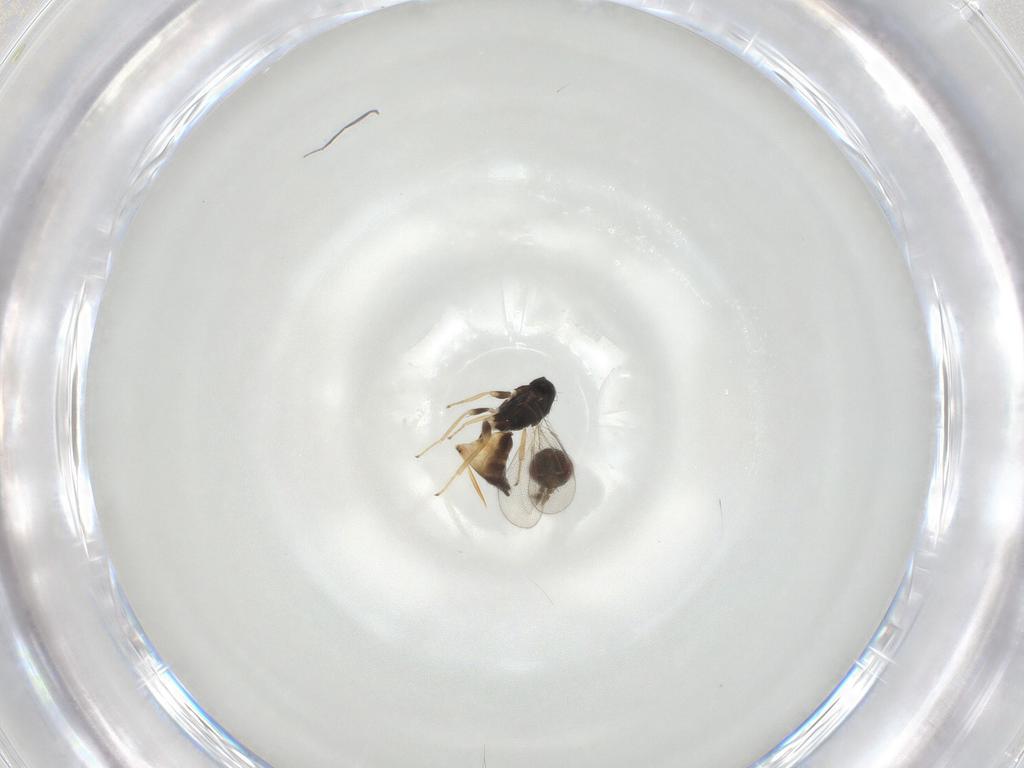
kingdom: Animalia
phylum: Arthropoda
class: Insecta
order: Hymenoptera
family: Eulophidae
